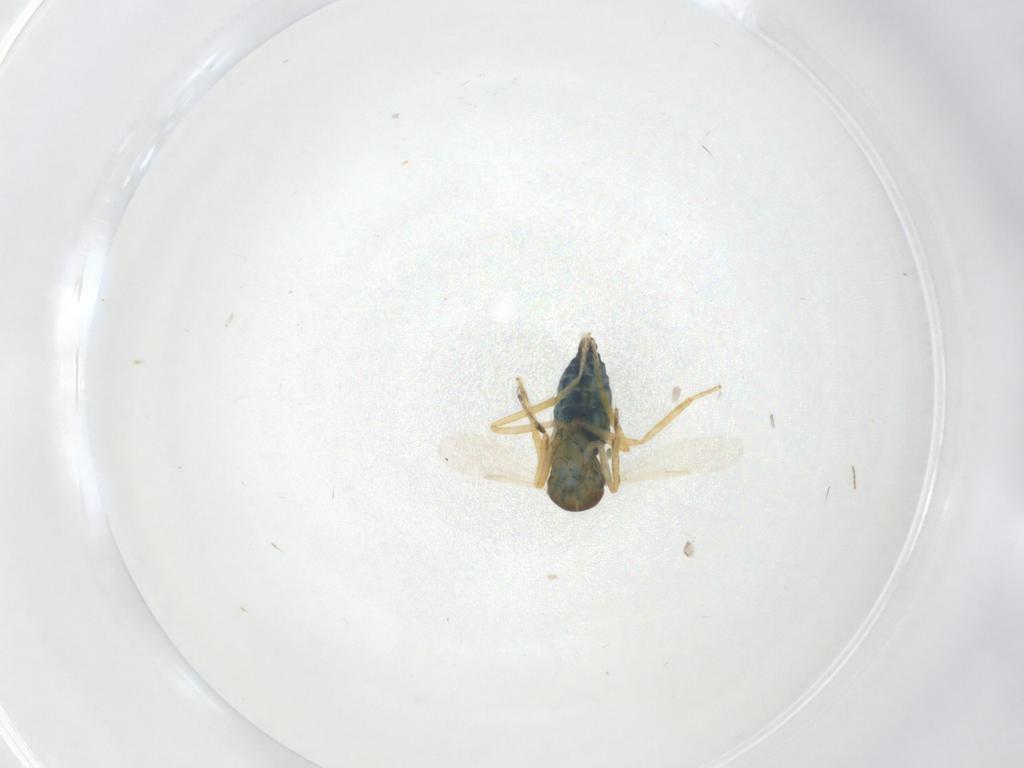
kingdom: Animalia
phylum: Arthropoda
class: Insecta
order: Diptera
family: Ceratopogonidae
